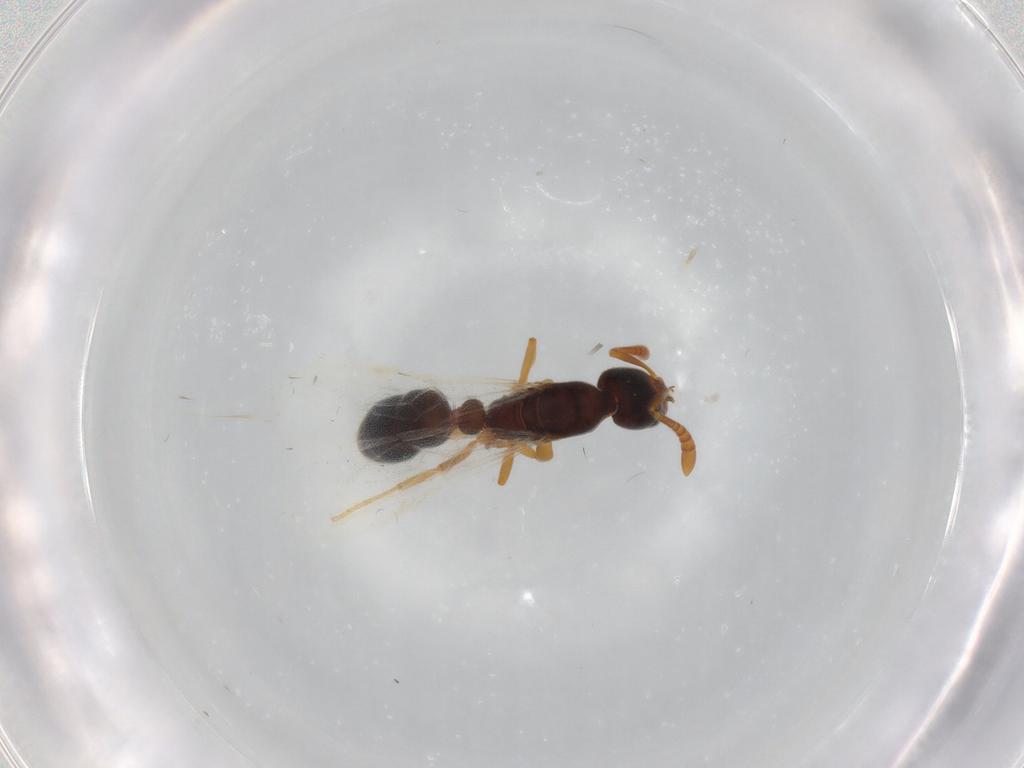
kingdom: Animalia
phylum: Arthropoda
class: Insecta
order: Hymenoptera
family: Formicidae
